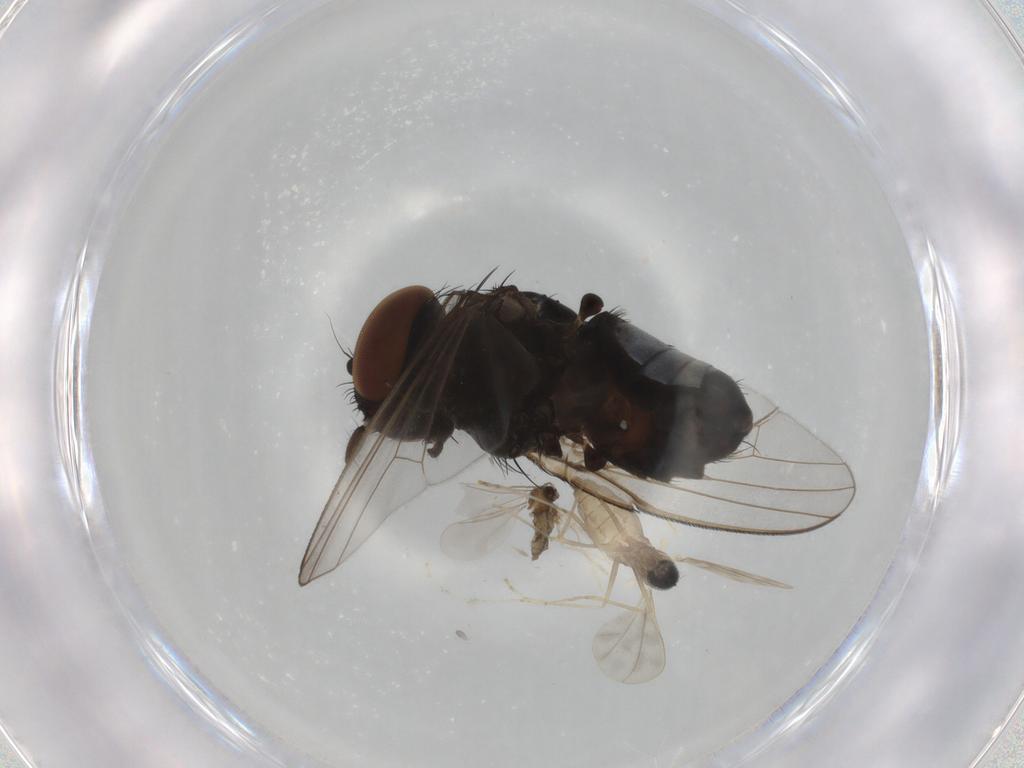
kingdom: Animalia
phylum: Arthropoda
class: Insecta
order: Diptera
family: Milichiidae
